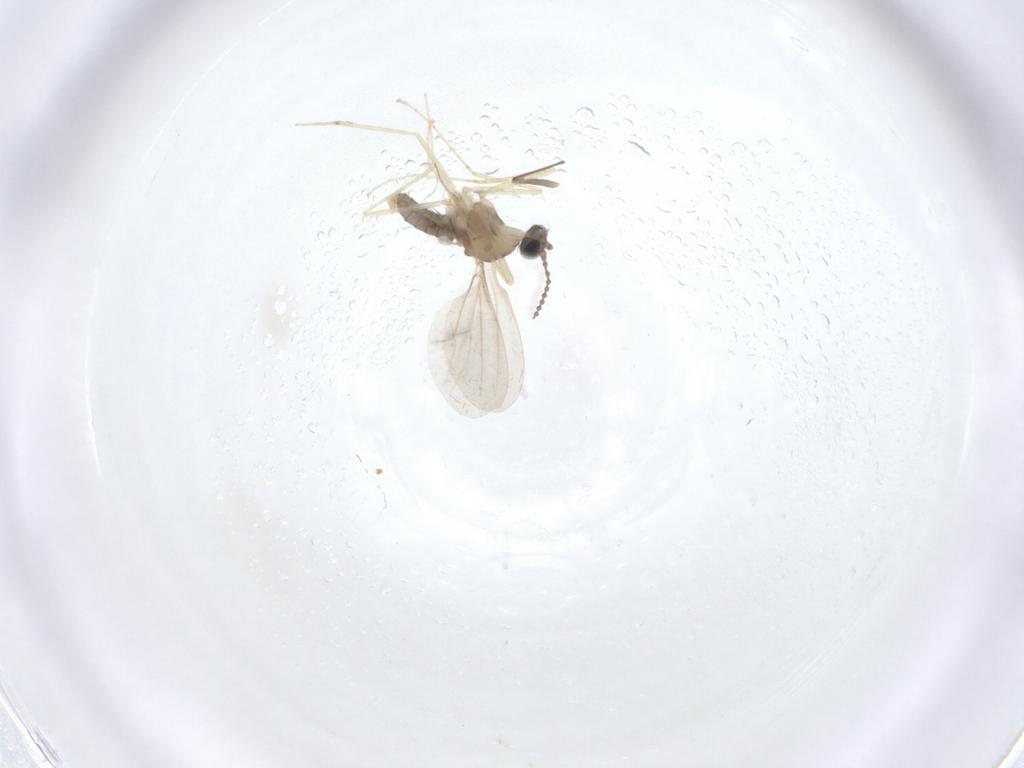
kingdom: Animalia
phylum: Arthropoda
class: Insecta
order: Diptera
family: Cecidomyiidae
